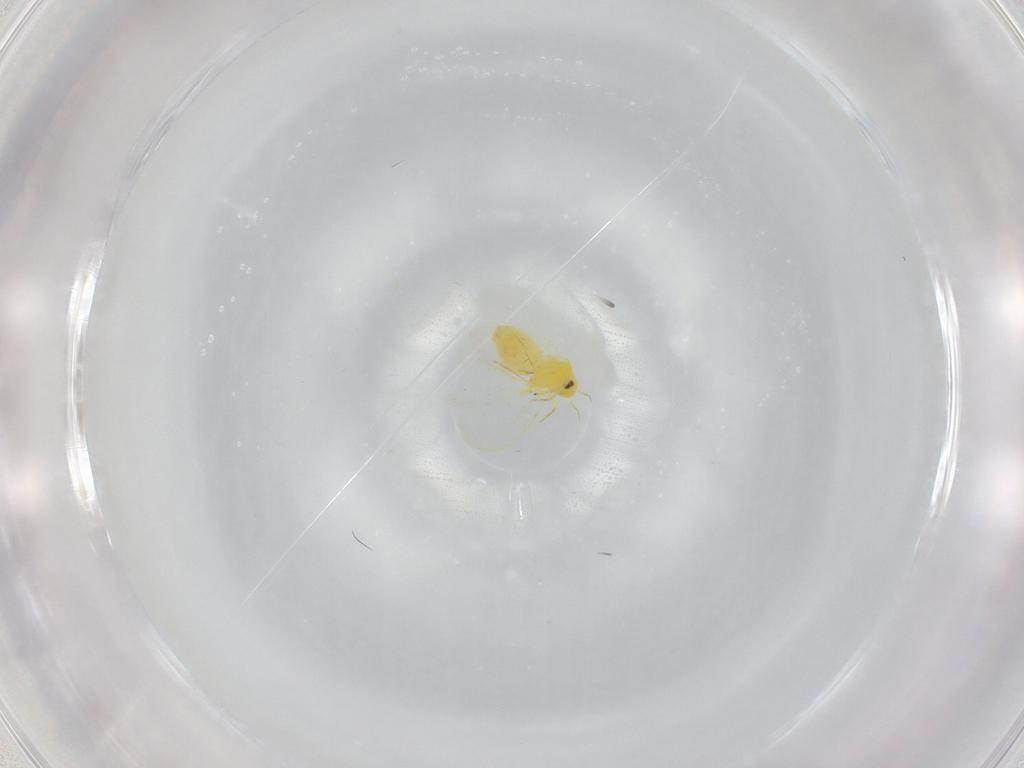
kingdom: Animalia
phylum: Arthropoda
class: Insecta
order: Hemiptera
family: Aleyrodidae
